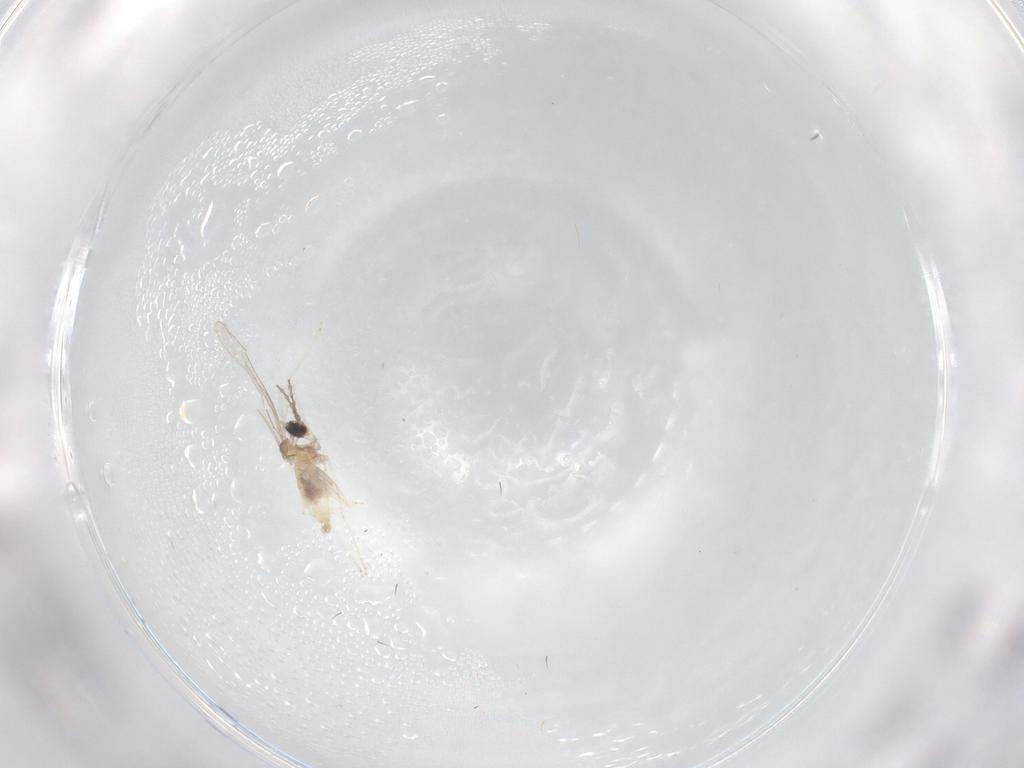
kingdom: Animalia
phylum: Arthropoda
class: Insecta
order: Diptera
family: Cecidomyiidae
